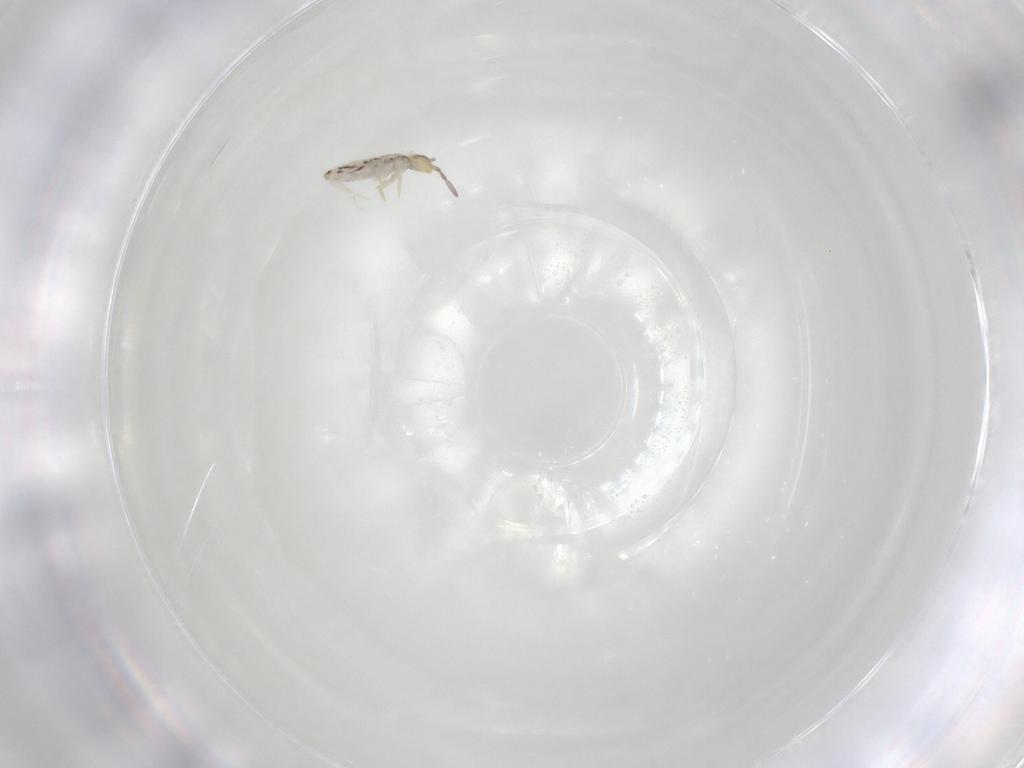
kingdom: Animalia
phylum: Arthropoda
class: Collembola
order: Entomobryomorpha
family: Entomobryidae
